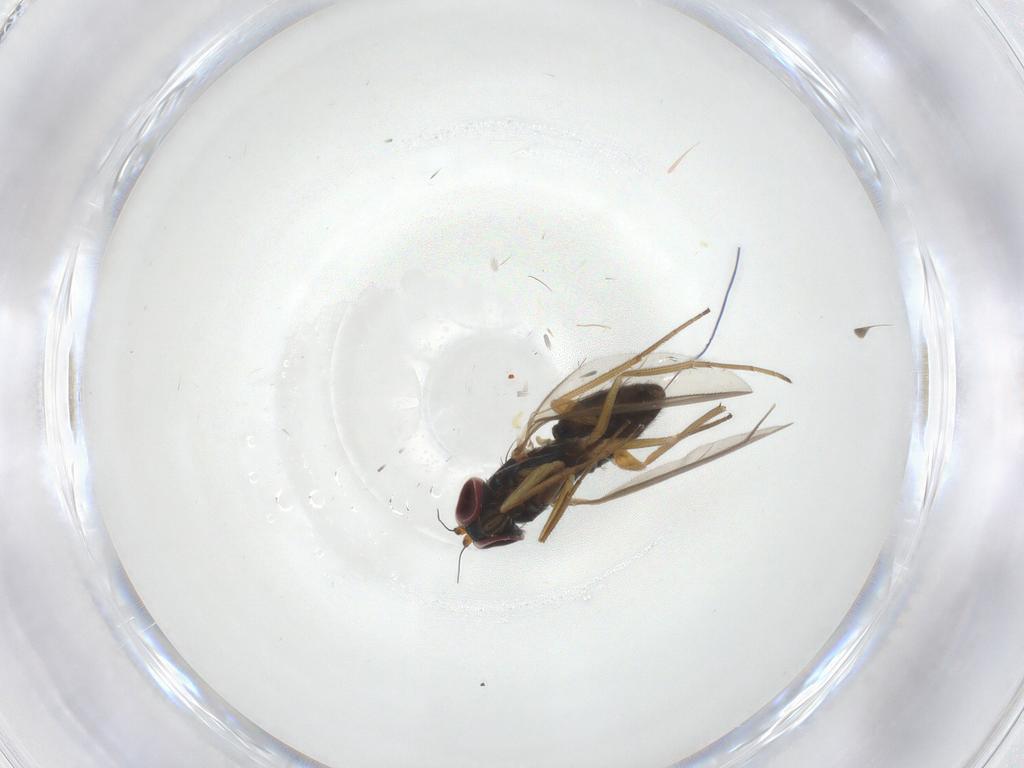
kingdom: Animalia
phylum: Arthropoda
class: Insecta
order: Diptera
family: Dolichopodidae
